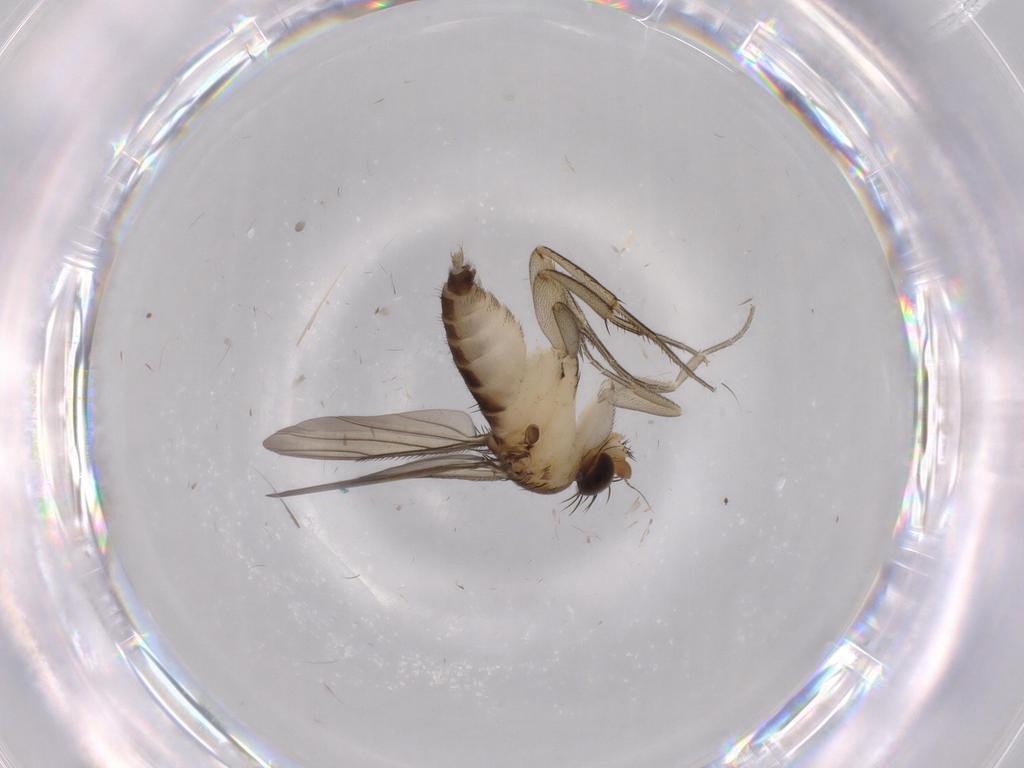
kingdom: Animalia
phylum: Arthropoda
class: Insecta
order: Diptera
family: Phoridae
